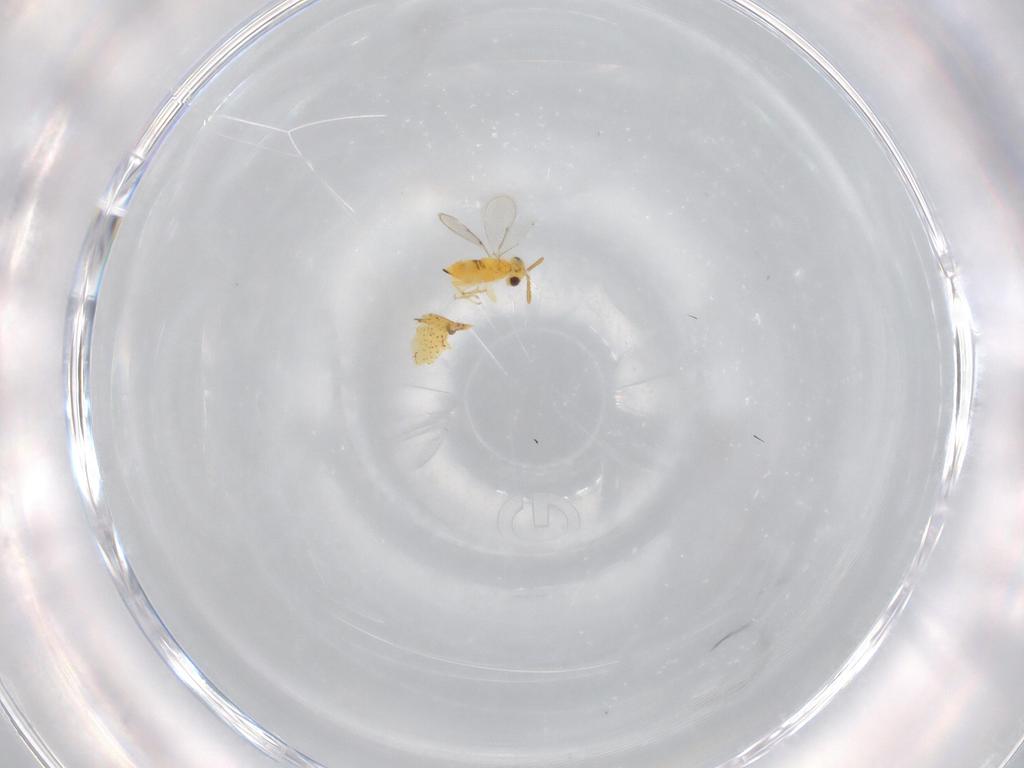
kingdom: Animalia
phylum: Arthropoda
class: Insecta
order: Hymenoptera
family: Aphelinidae
